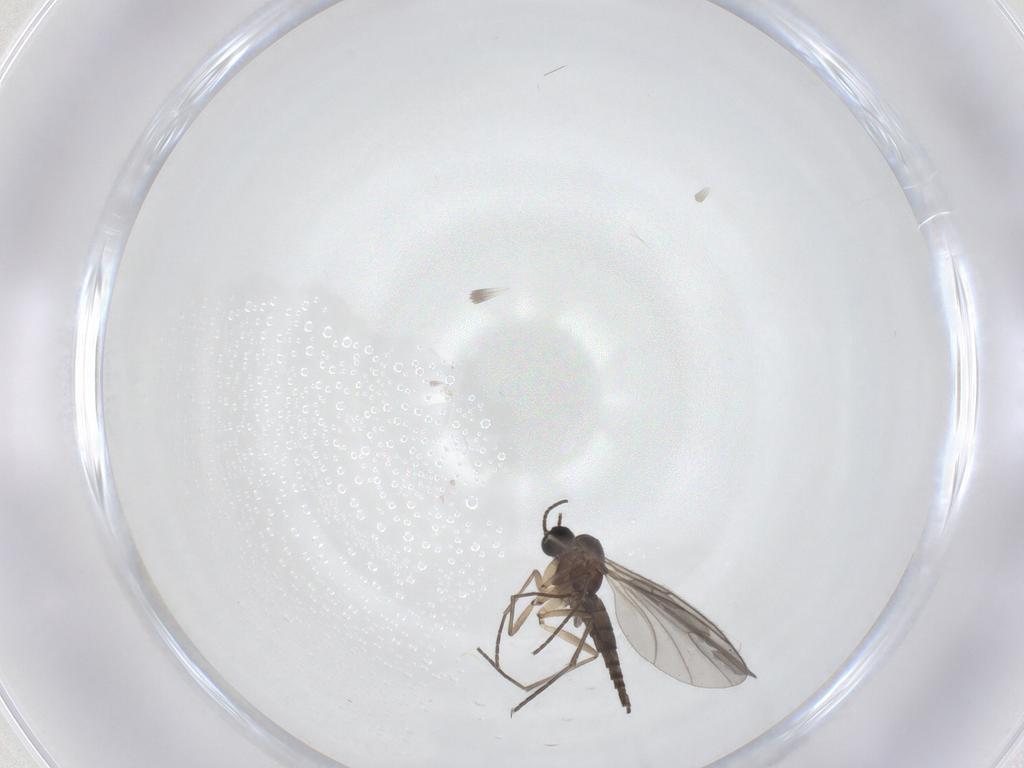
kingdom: Animalia
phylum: Arthropoda
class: Insecta
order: Diptera
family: Sciaridae
